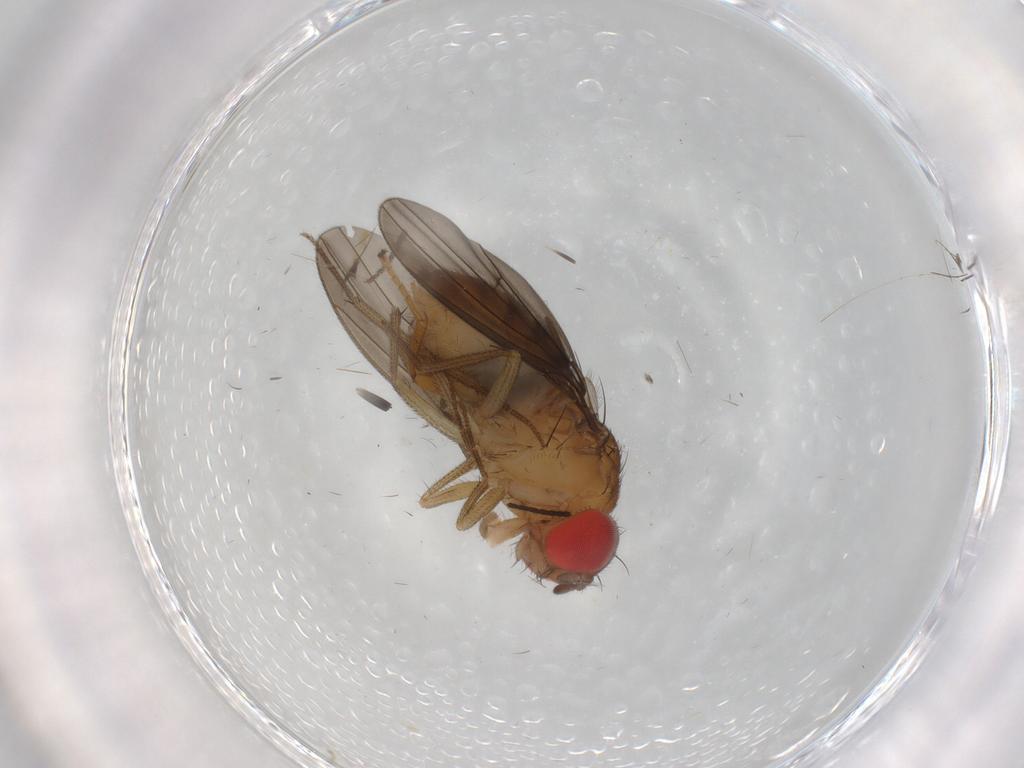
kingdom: Animalia
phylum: Arthropoda
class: Insecta
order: Diptera
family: Drosophilidae
